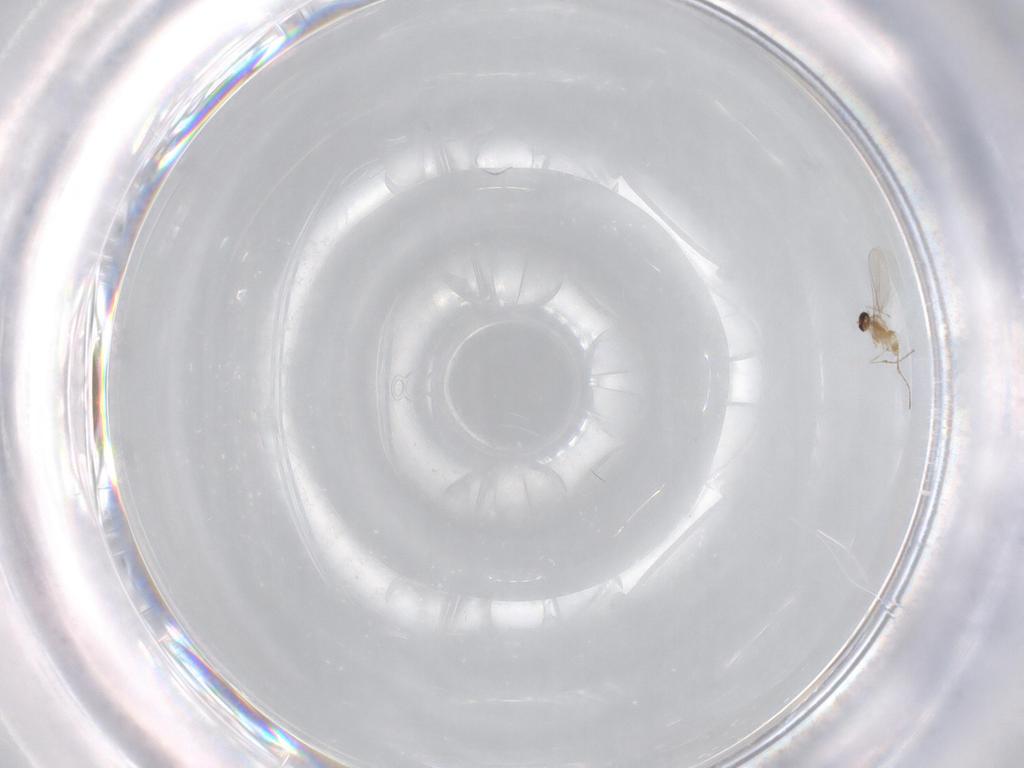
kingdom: Animalia
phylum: Arthropoda
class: Insecta
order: Diptera
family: Cecidomyiidae
